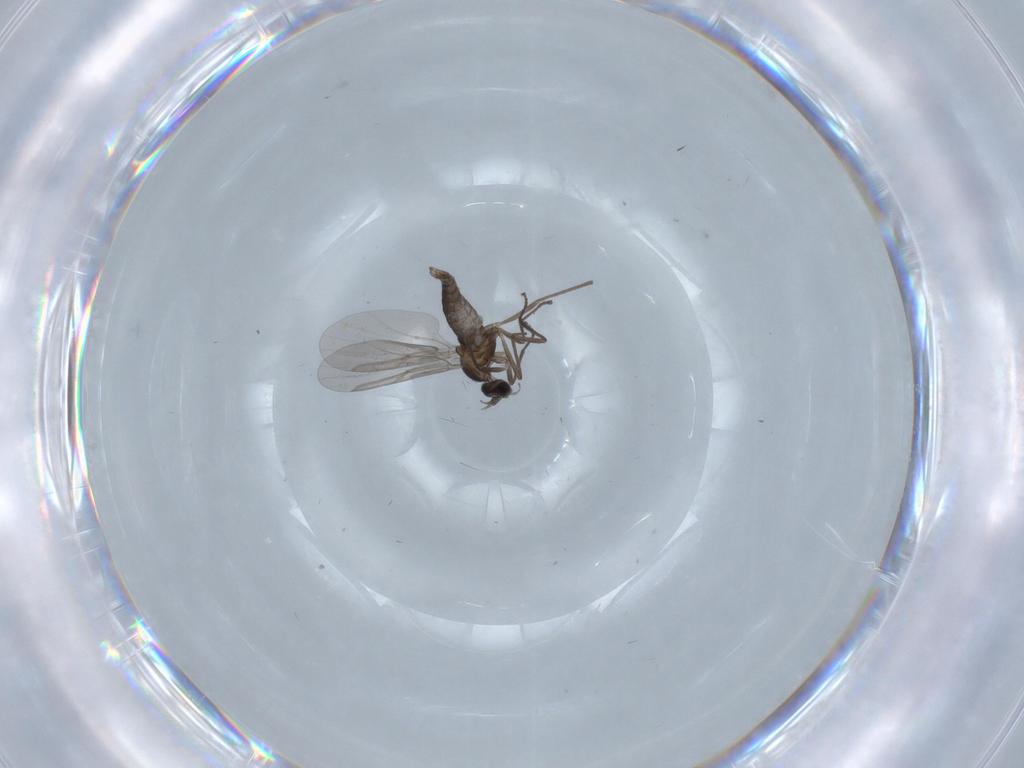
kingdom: Animalia
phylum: Arthropoda
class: Insecta
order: Diptera
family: Cecidomyiidae
